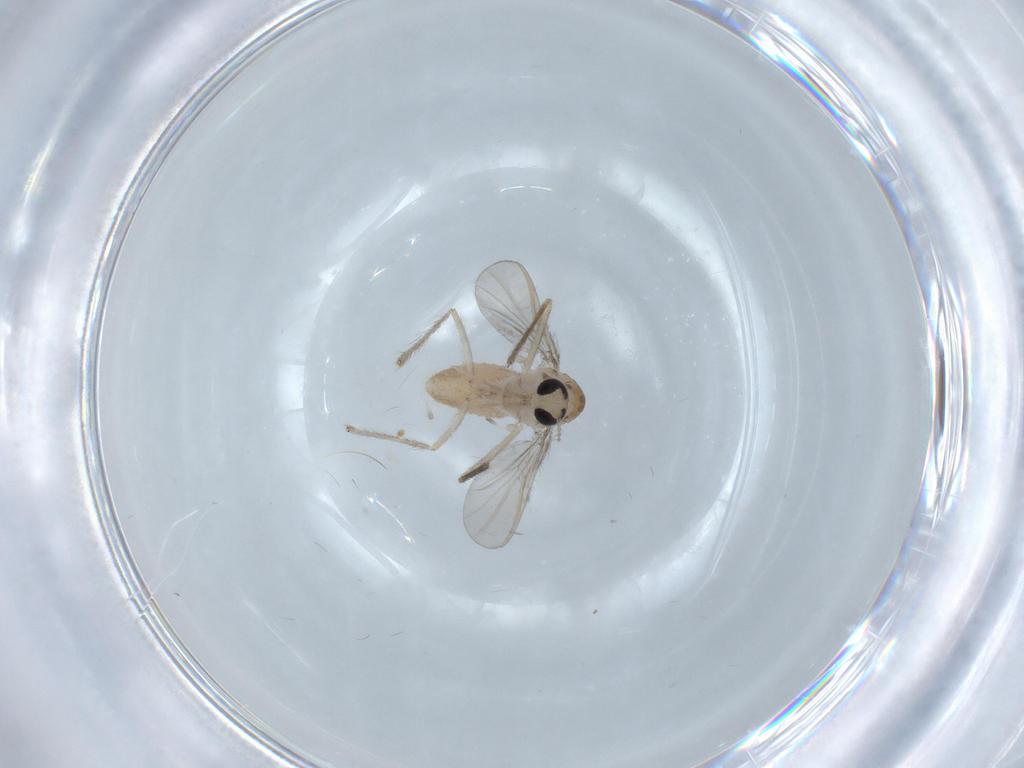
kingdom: Animalia
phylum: Arthropoda
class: Insecta
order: Diptera
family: Chironomidae
